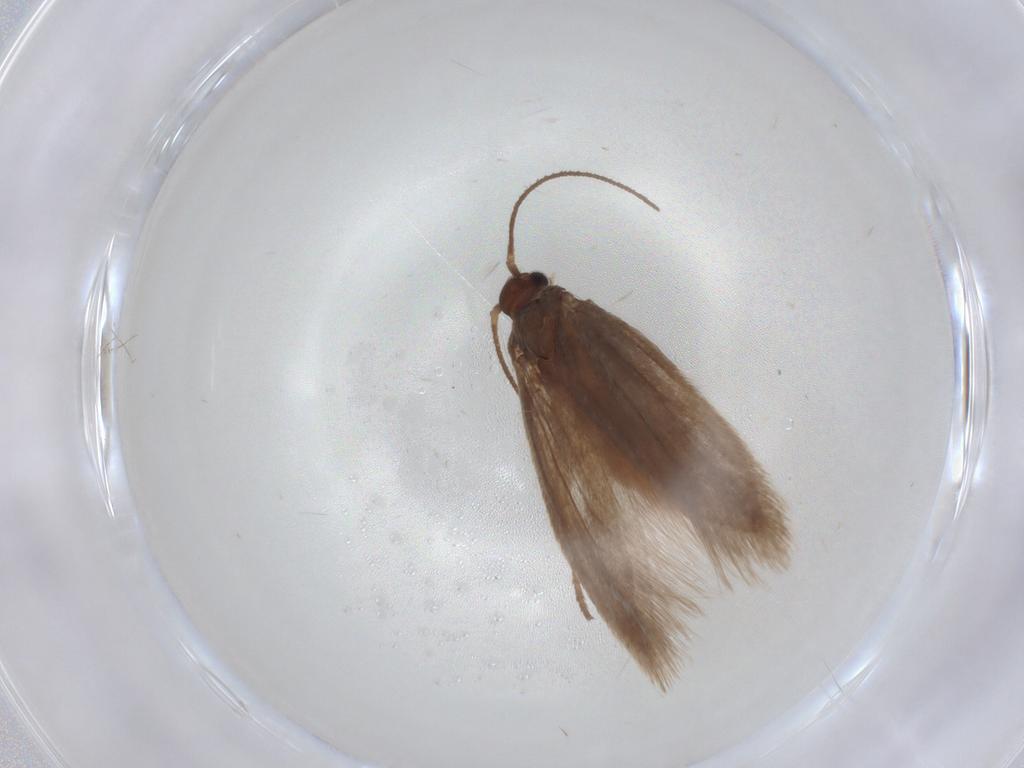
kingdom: Animalia
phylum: Arthropoda
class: Insecta
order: Lepidoptera
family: Limacodidae
